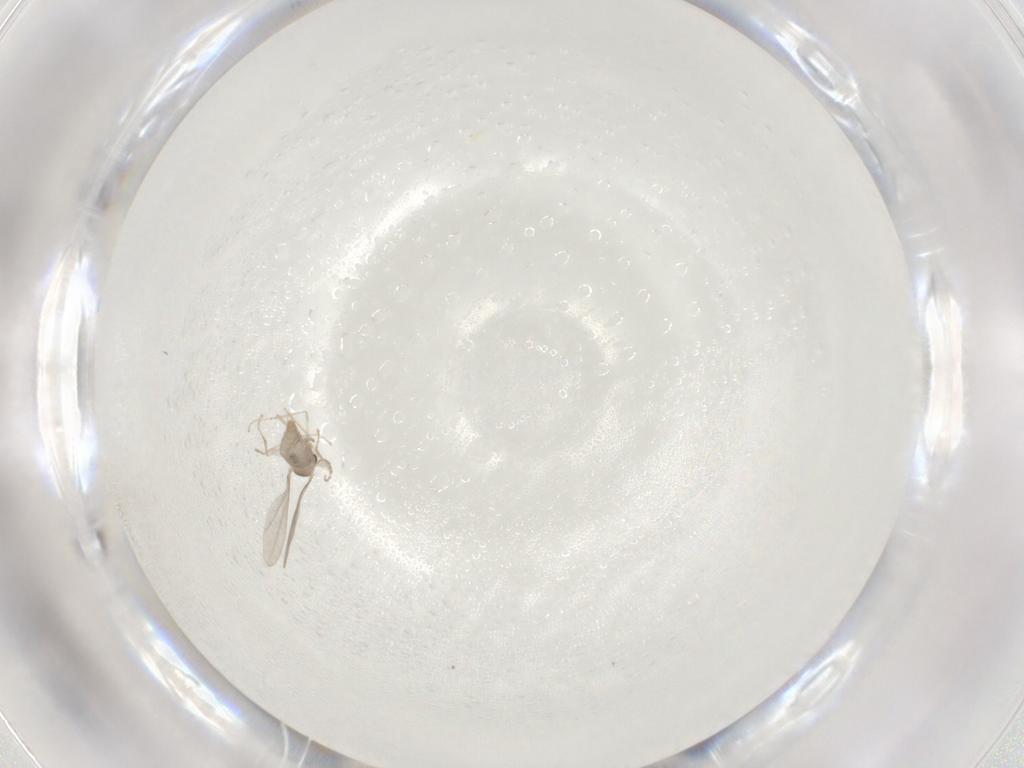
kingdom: Animalia
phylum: Arthropoda
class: Insecta
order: Diptera
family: Cecidomyiidae
